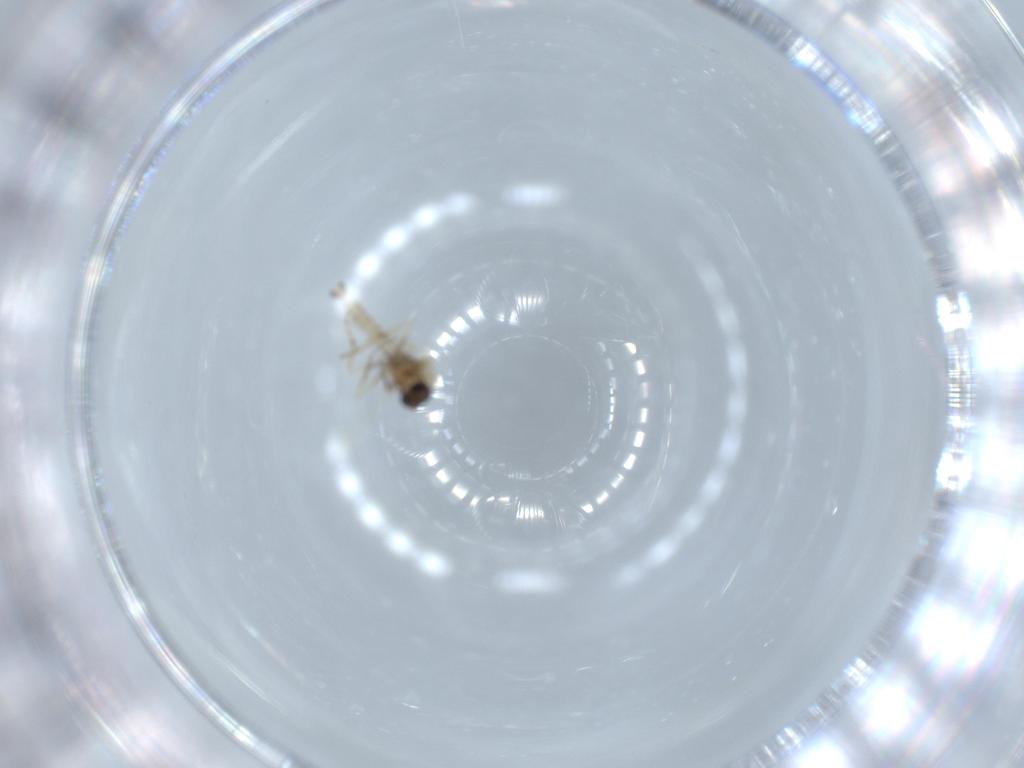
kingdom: Animalia
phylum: Arthropoda
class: Insecta
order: Diptera
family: Ceratopogonidae
